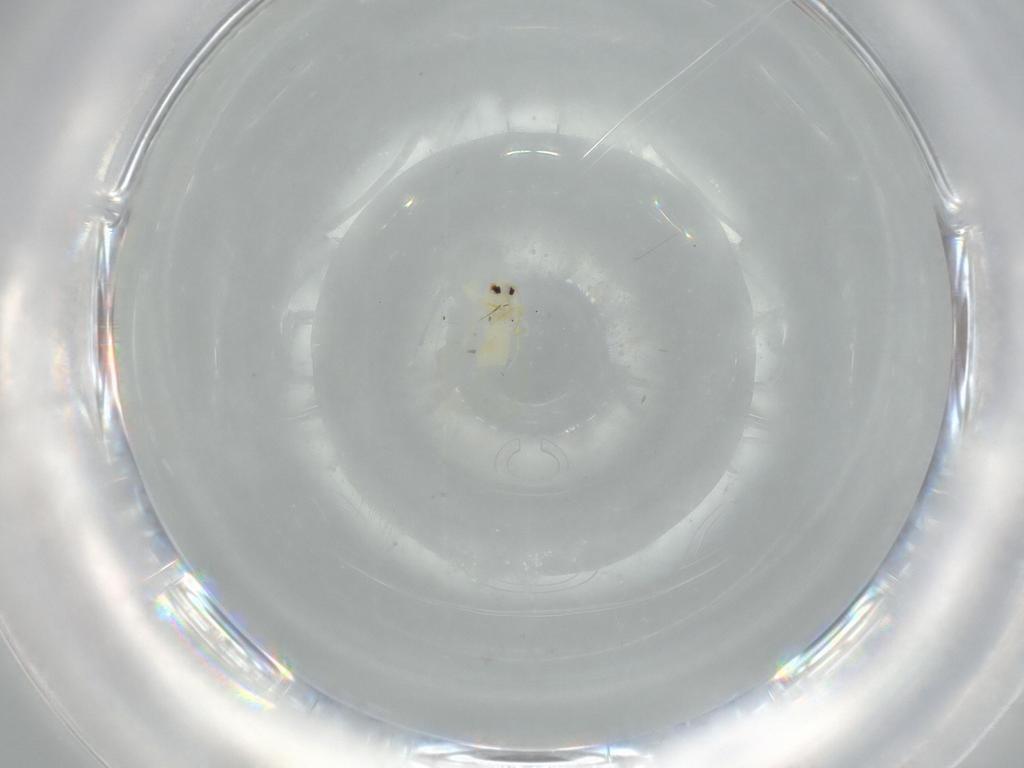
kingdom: Animalia
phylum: Arthropoda
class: Insecta
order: Hemiptera
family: Aleyrodidae
